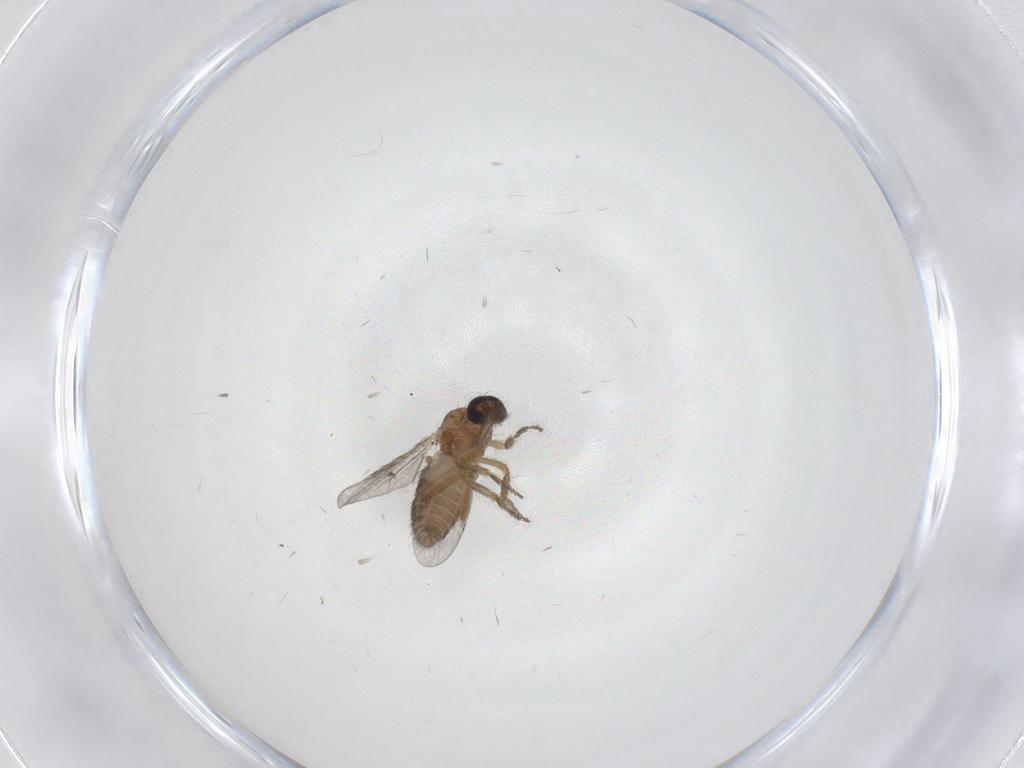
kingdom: Animalia
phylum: Arthropoda
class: Insecta
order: Diptera
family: Ceratopogonidae
